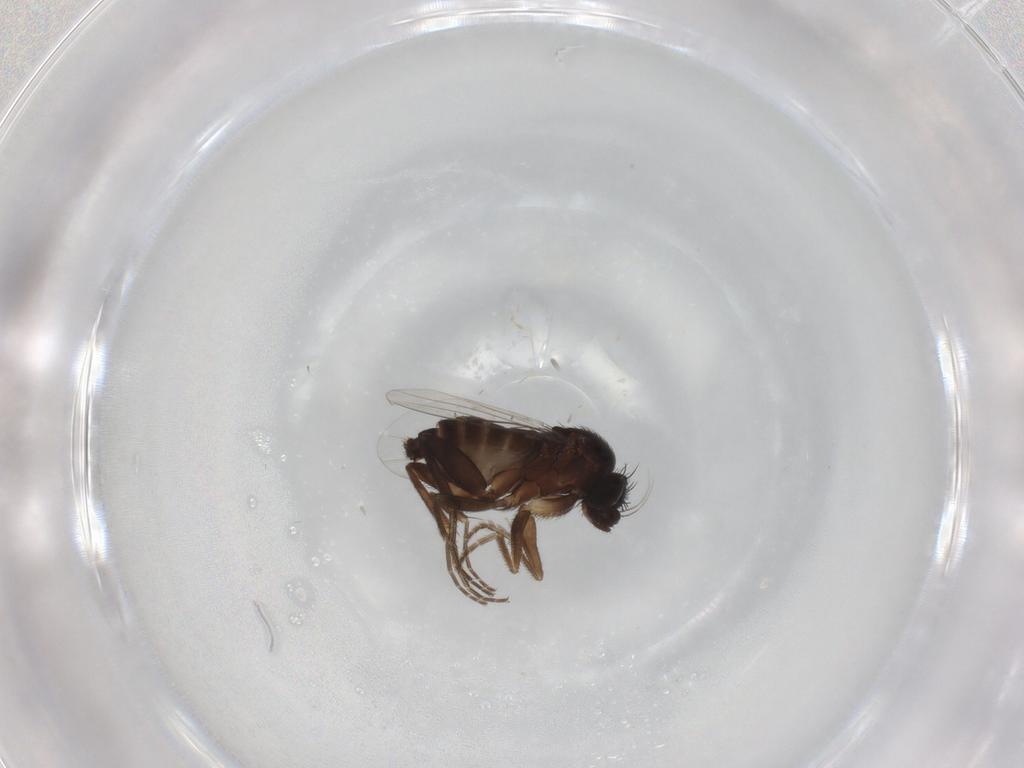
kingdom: Animalia
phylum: Arthropoda
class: Insecta
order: Diptera
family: Phoridae
